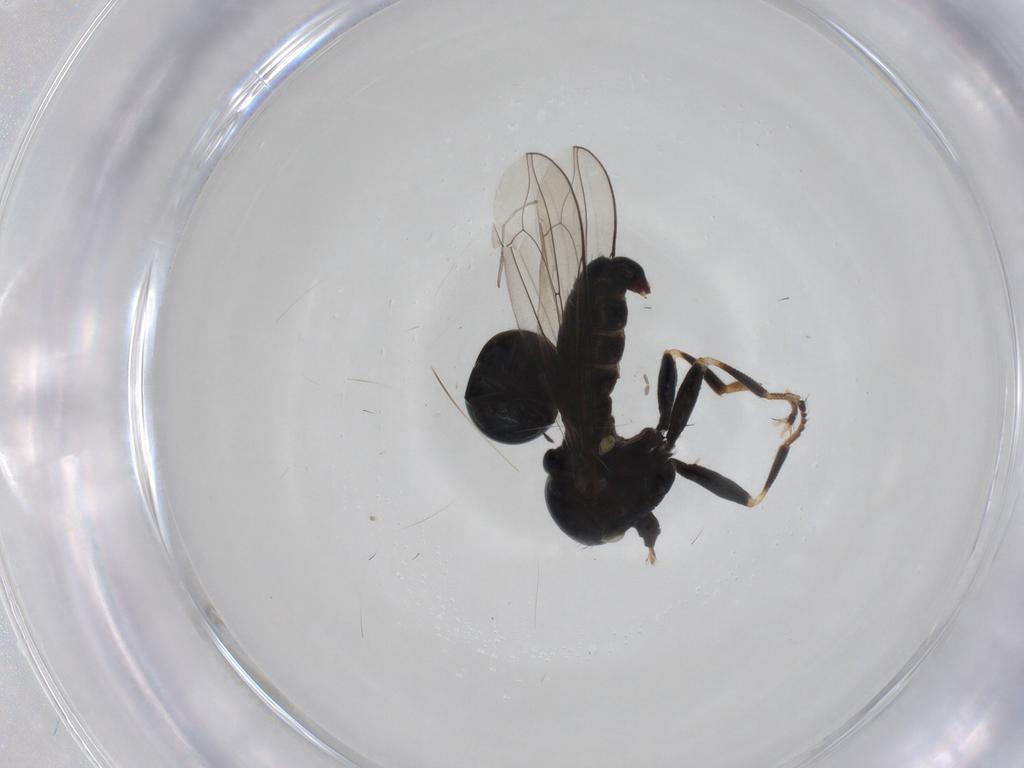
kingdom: Animalia
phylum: Arthropoda
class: Insecta
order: Diptera
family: Pipunculidae
